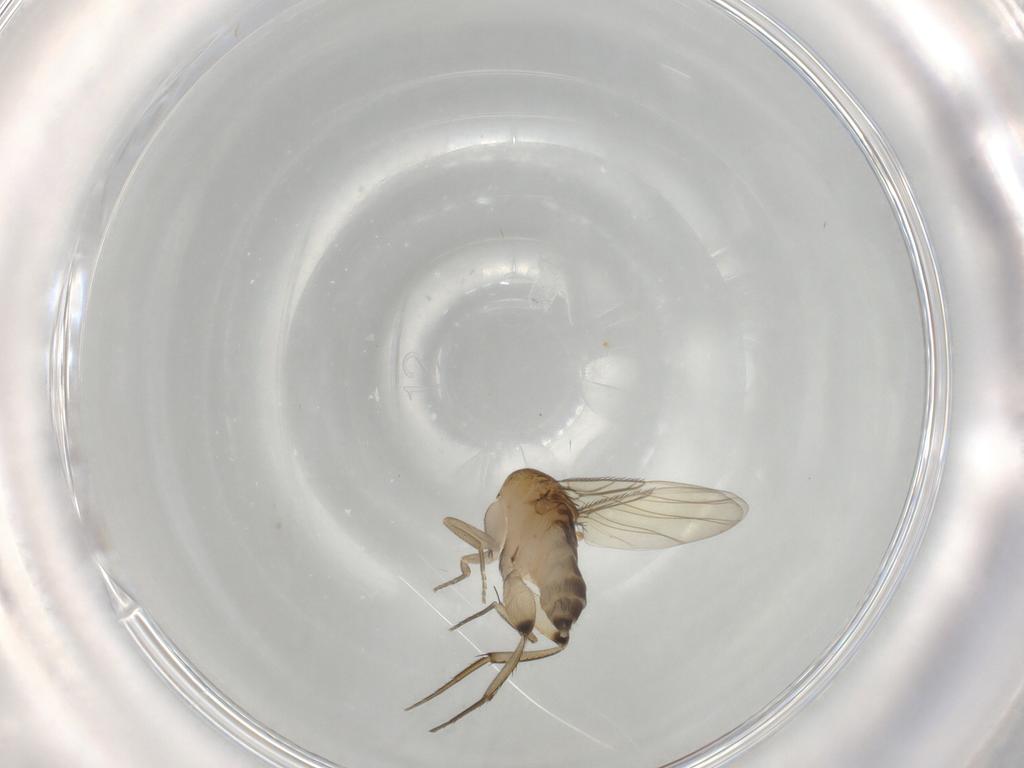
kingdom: Animalia
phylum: Arthropoda
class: Insecta
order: Diptera
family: Phoridae
